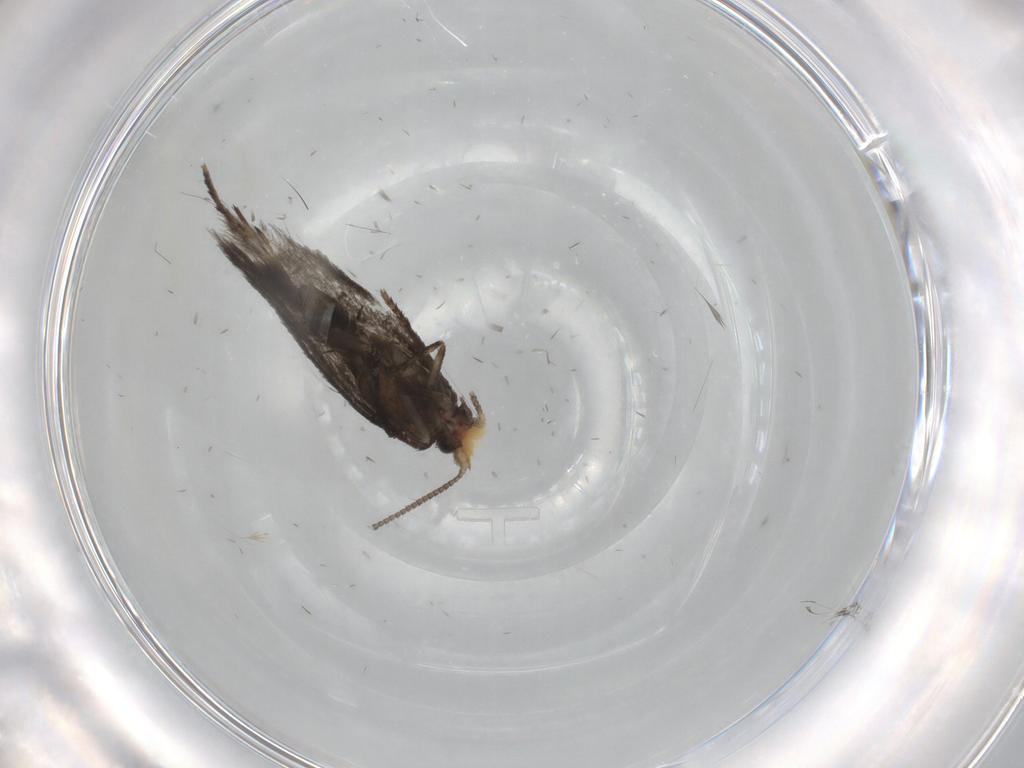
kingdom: Animalia
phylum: Arthropoda
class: Insecta
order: Lepidoptera
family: Nepticulidae
